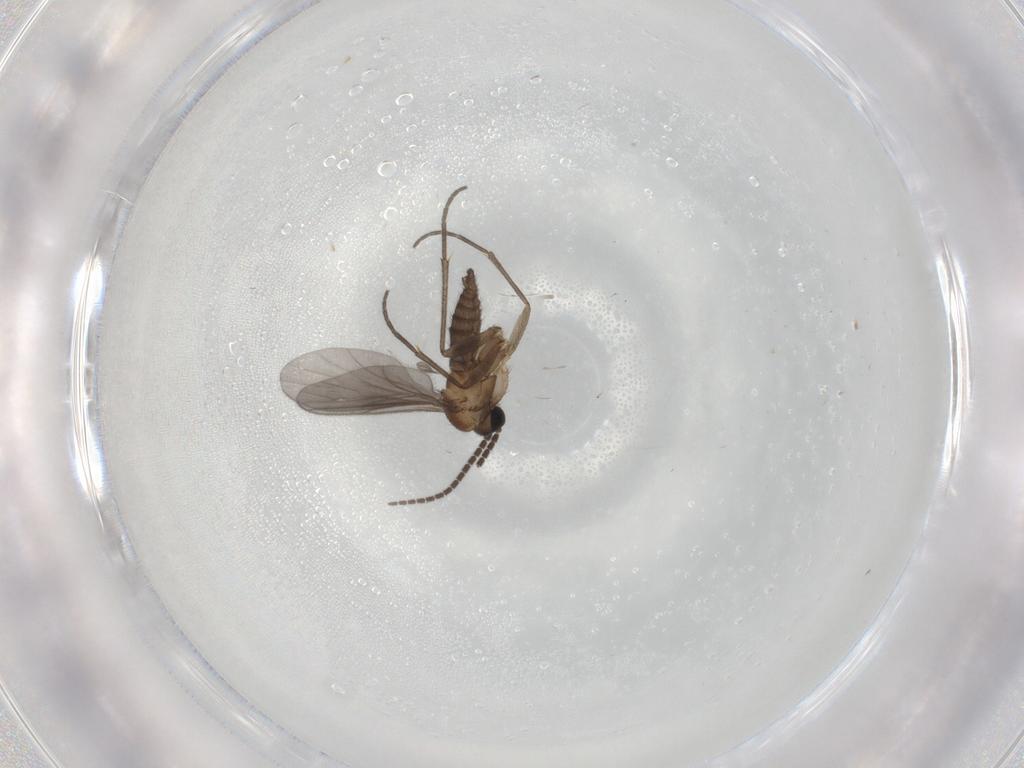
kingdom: Animalia
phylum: Arthropoda
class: Insecta
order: Diptera
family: Sciaridae
